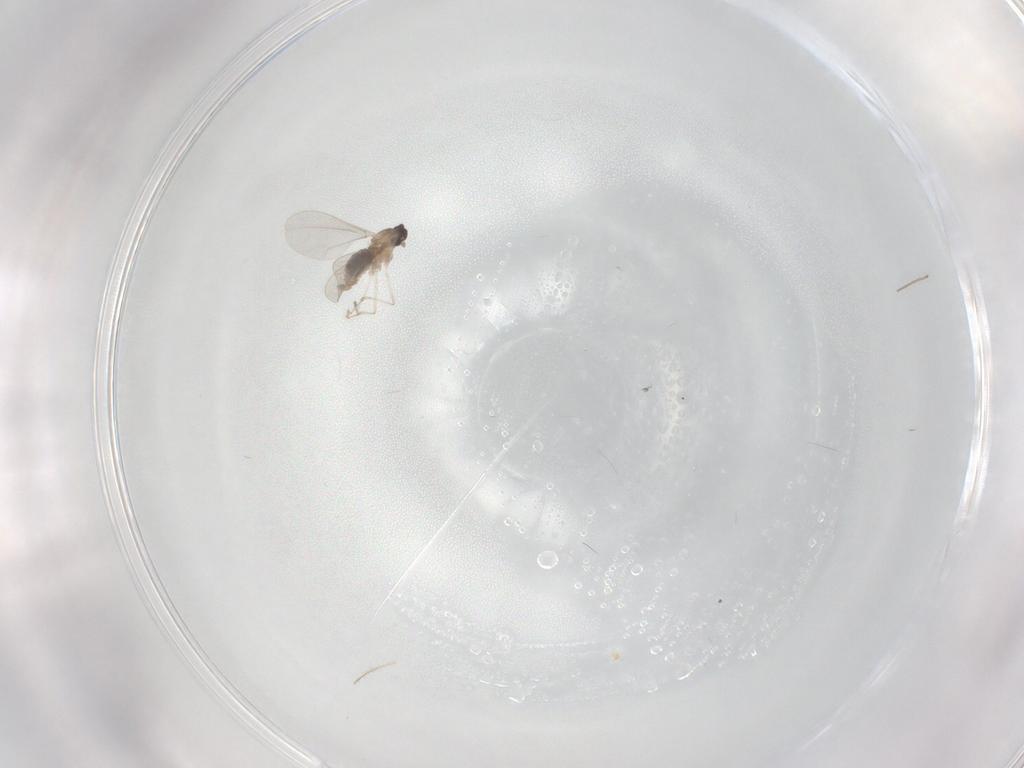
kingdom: Animalia
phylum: Arthropoda
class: Insecta
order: Diptera
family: Chironomidae
